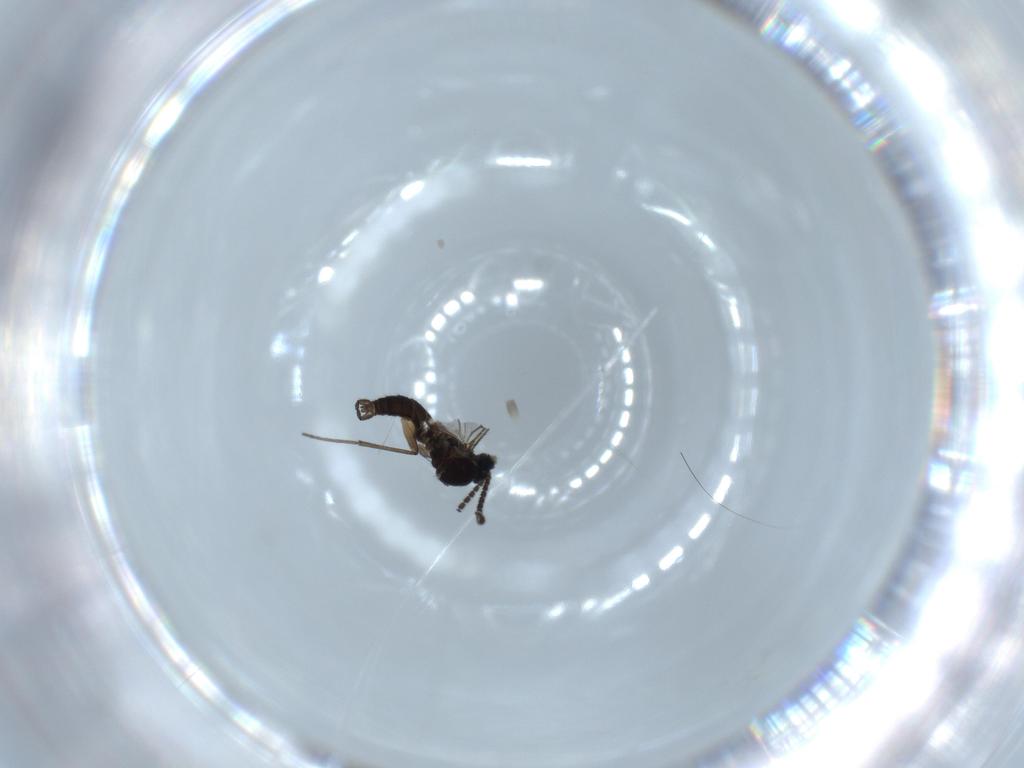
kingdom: Animalia
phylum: Arthropoda
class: Insecta
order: Diptera
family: Sciaridae
